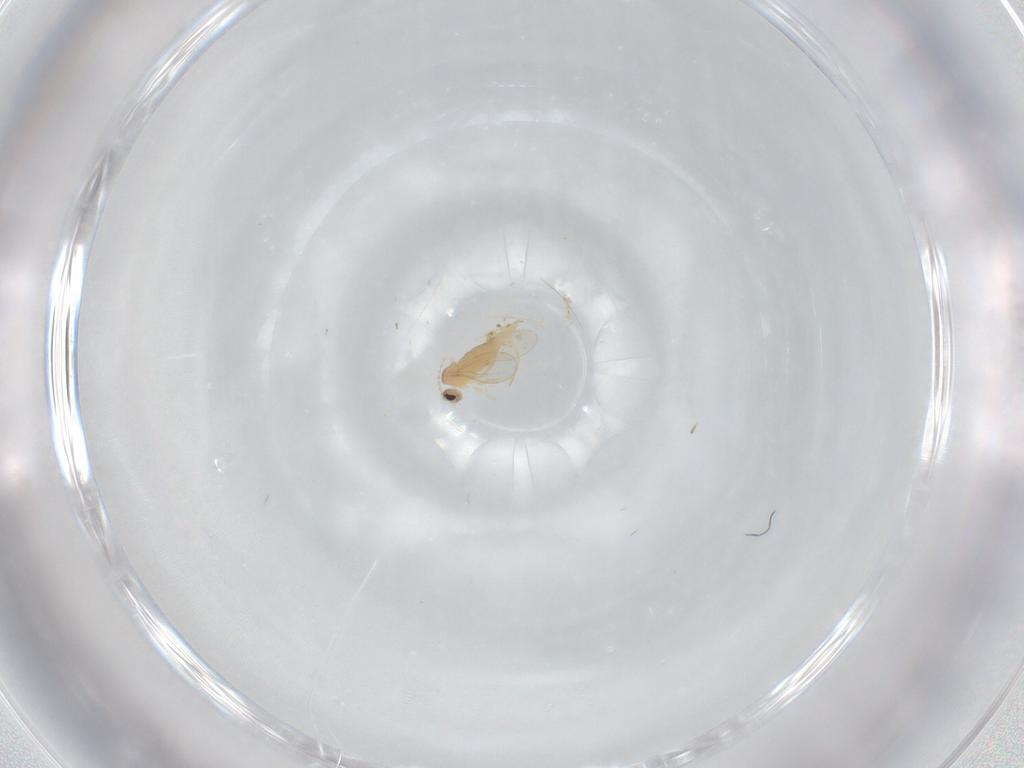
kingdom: Animalia
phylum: Arthropoda
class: Insecta
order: Diptera
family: Cecidomyiidae
